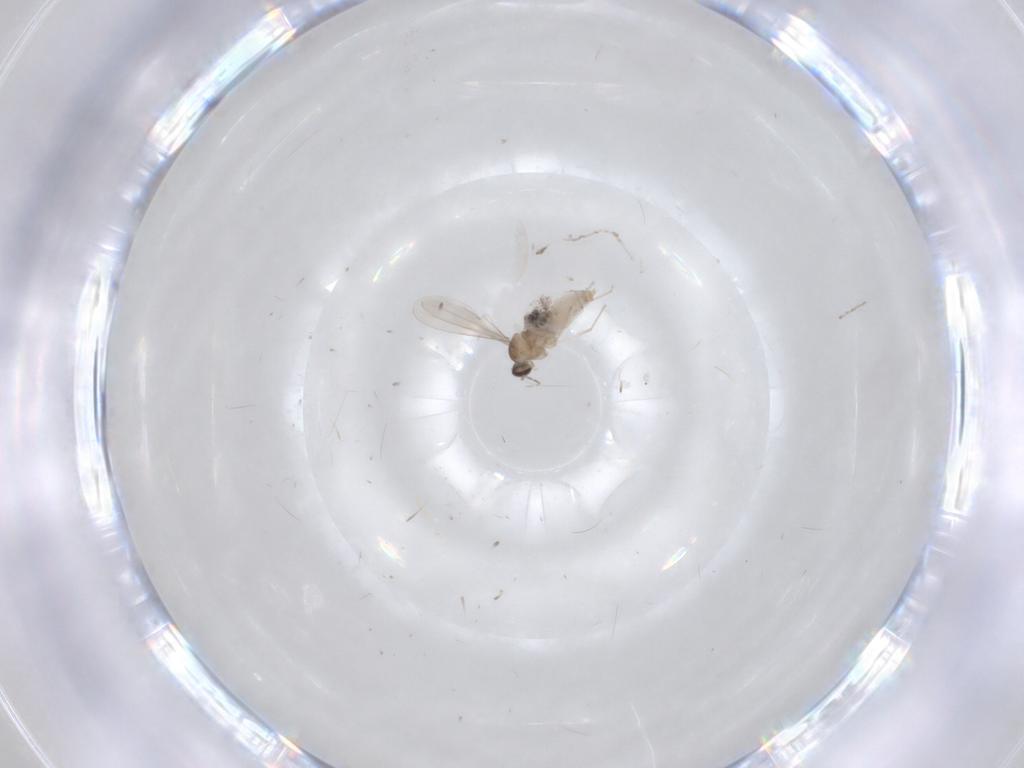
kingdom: Animalia
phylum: Arthropoda
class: Insecta
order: Diptera
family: Cecidomyiidae
